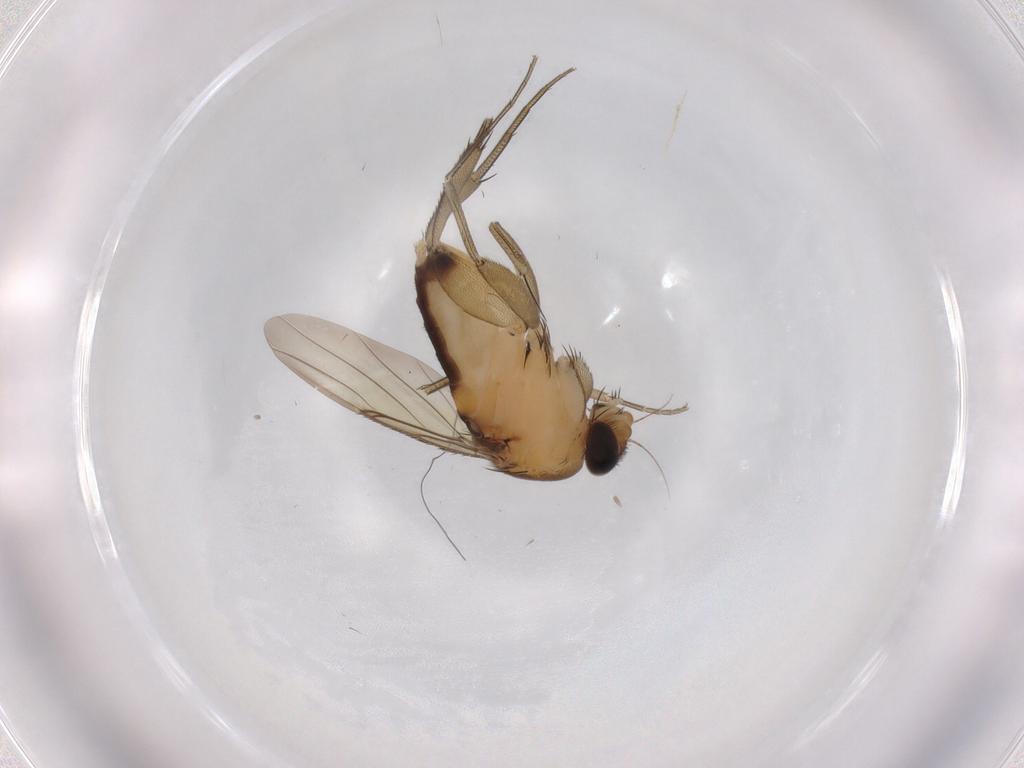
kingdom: Animalia
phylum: Arthropoda
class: Insecta
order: Diptera
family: Phoridae
